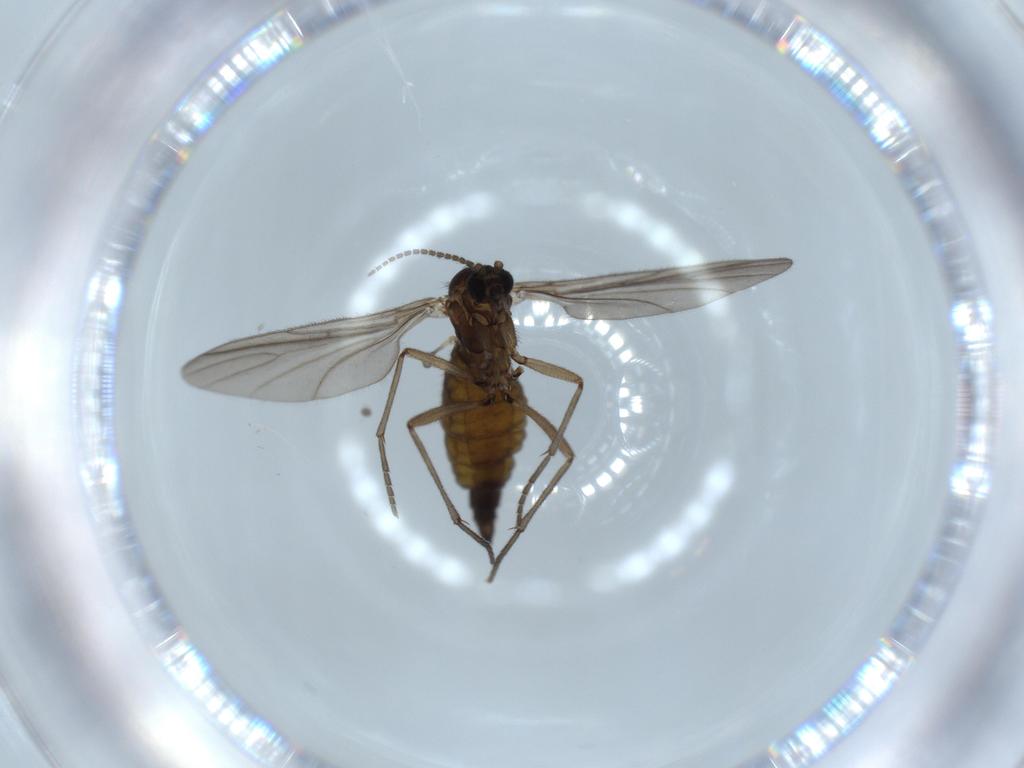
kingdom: Animalia
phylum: Arthropoda
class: Insecta
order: Diptera
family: Sciaridae
